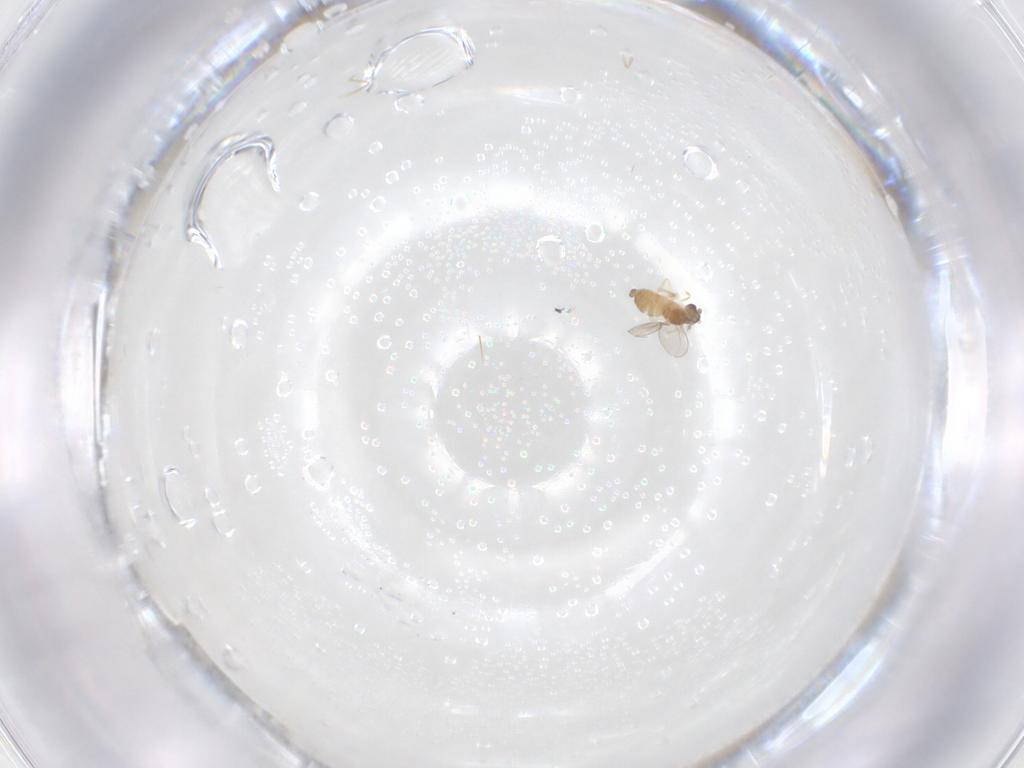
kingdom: Animalia
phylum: Arthropoda
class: Insecta
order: Diptera
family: Cecidomyiidae
